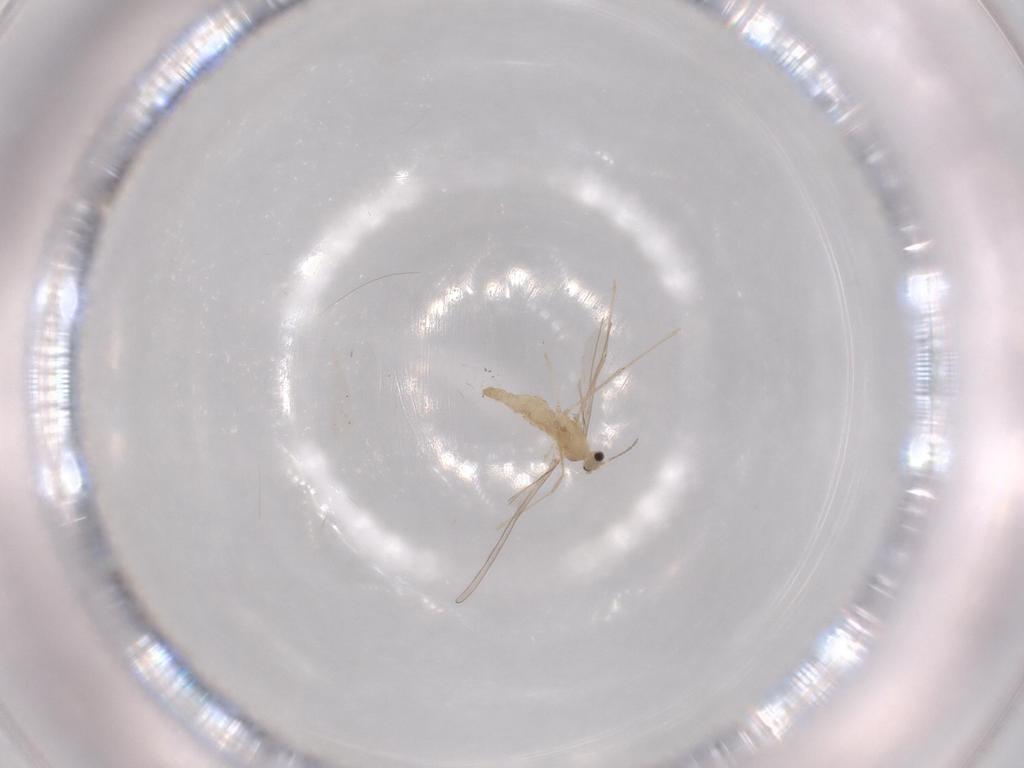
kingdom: Animalia
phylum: Arthropoda
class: Insecta
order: Diptera
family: Cecidomyiidae
